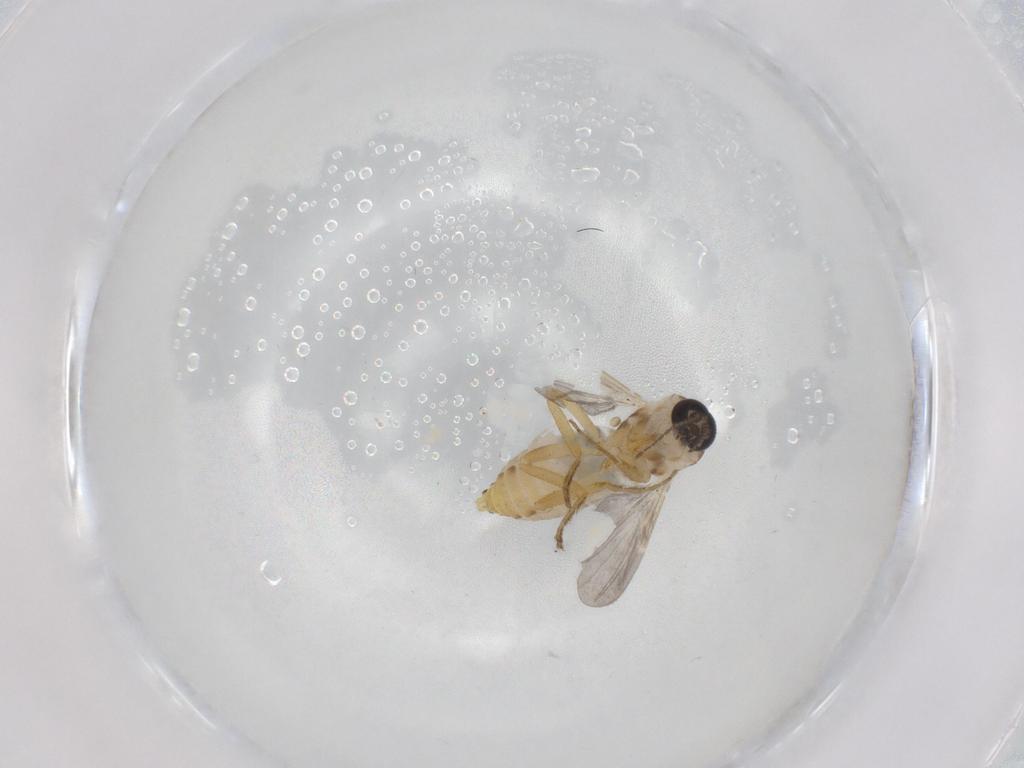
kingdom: Animalia
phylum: Arthropoda
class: Insecta
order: Diptera
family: Ceratopogonidae
